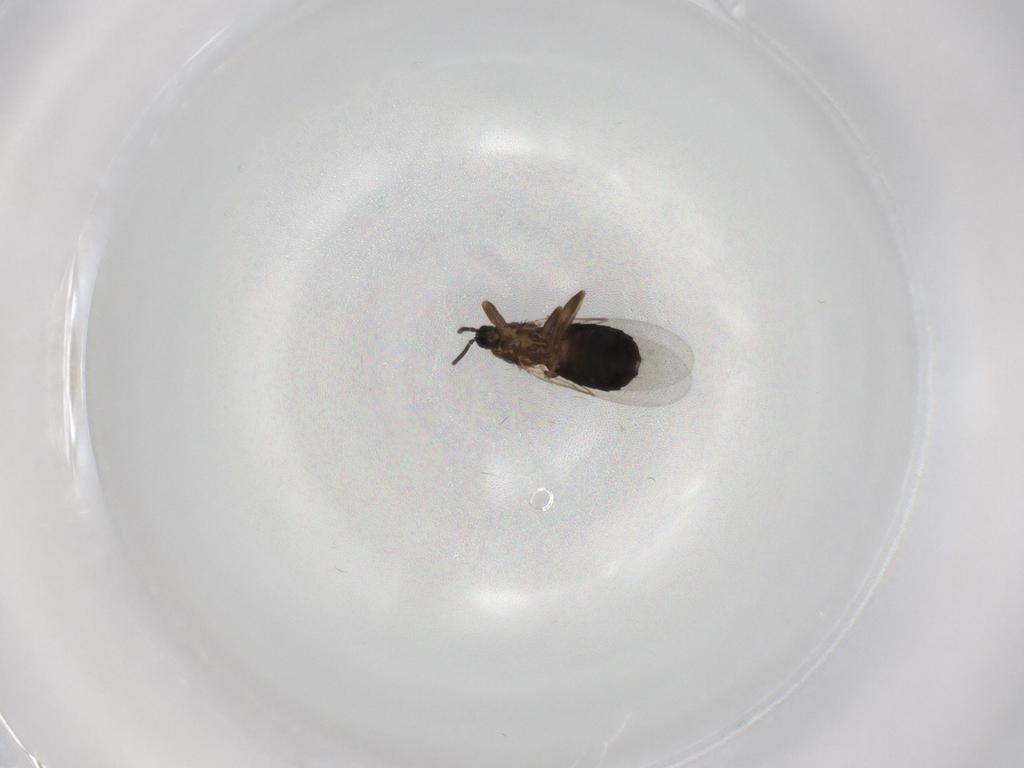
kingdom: Animalia
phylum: Arthropoda
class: Insecta
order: Diptera
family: Scatopsidae
